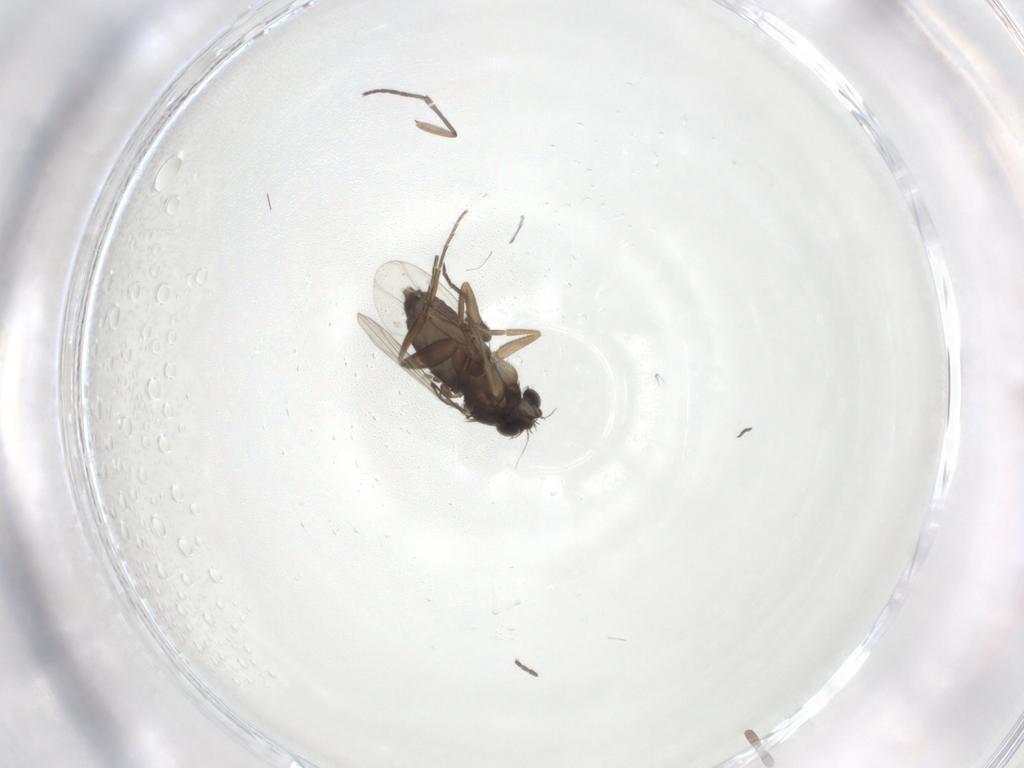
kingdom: Animalia
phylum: Arthropoda
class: Insecta
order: Diptera
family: Phoridae
